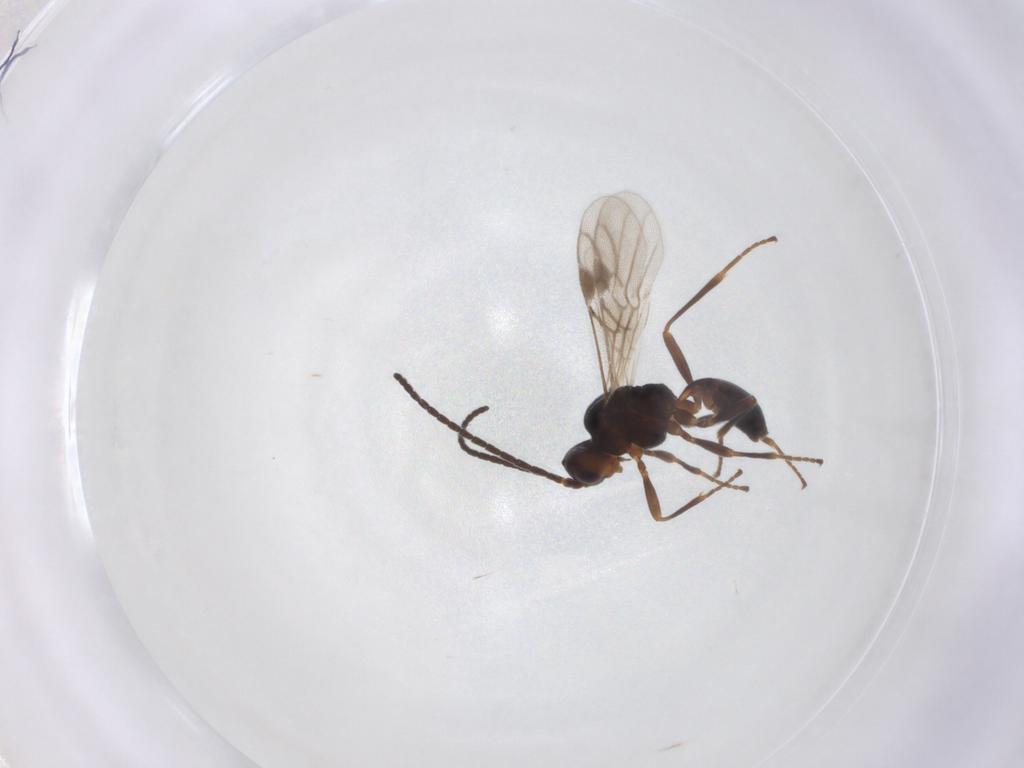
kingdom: Animalia
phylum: Arthropoda
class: Insecta
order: Hymenoptera
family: Braconidae
